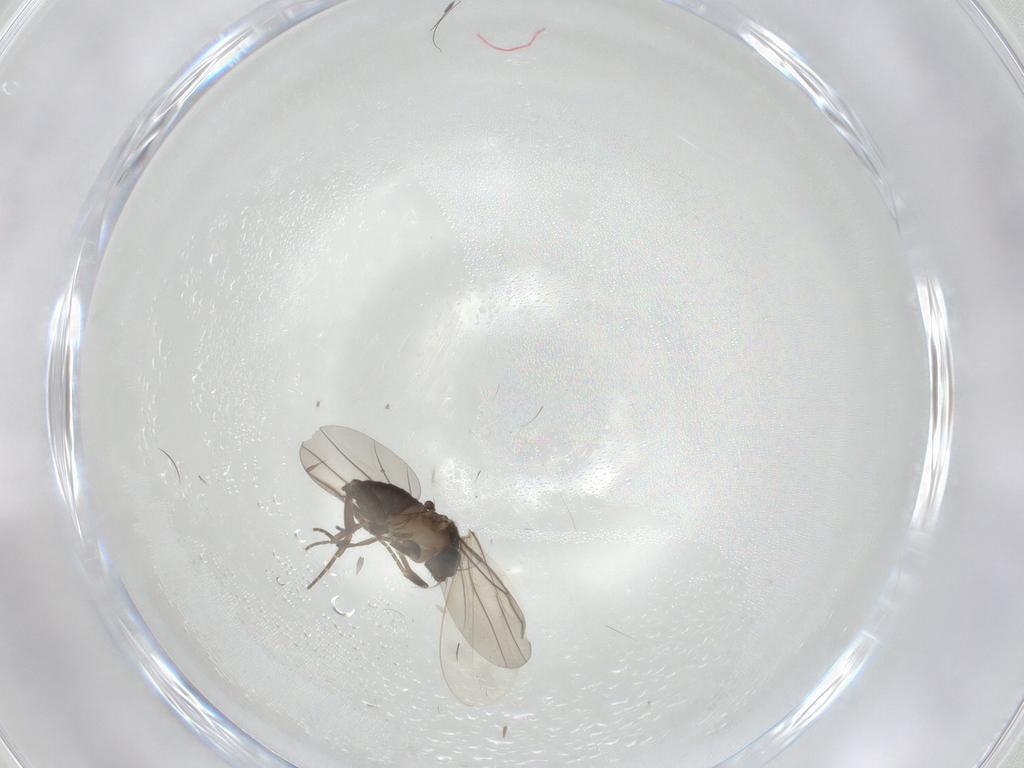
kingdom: Animalia
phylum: Arthropoda
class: Insecta
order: Diptera
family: Phoridae
